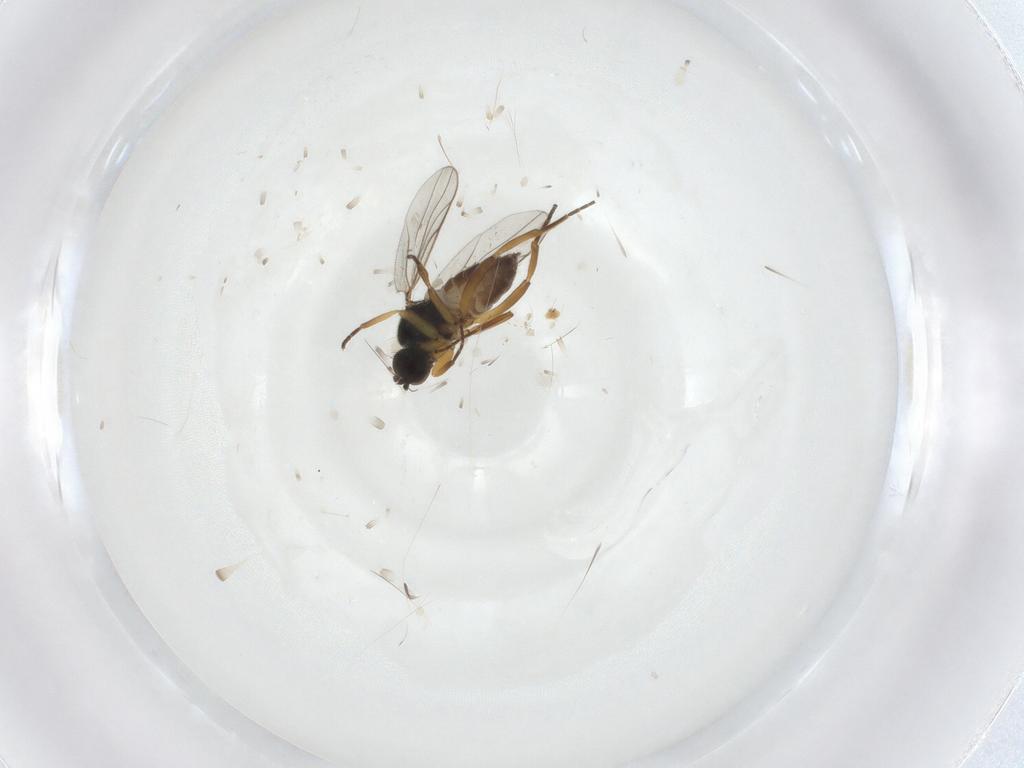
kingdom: Animalia
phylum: Arthropoda
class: Insecta
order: Diptera
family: Hybotidae
